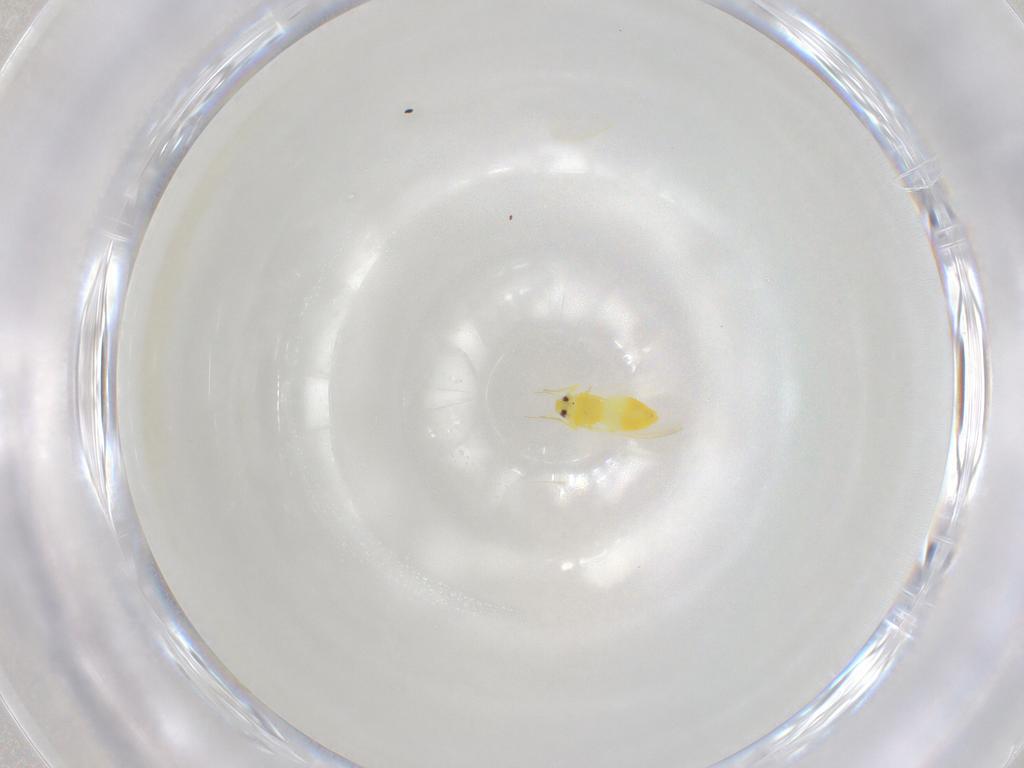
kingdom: Animalia
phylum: Arthropoda
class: Insecta
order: Hemiptera
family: Aleyrodidae
